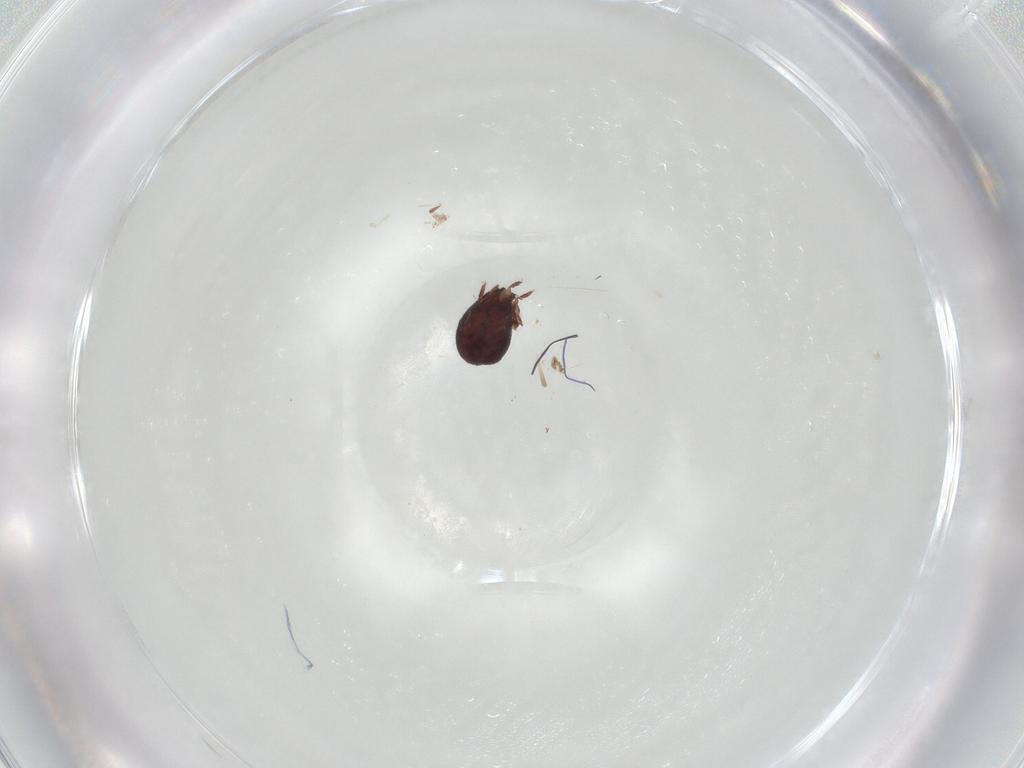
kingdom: Animalia
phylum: Arthropoda
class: Arachnida
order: Sarcoptiformes
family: Humerobatidae
